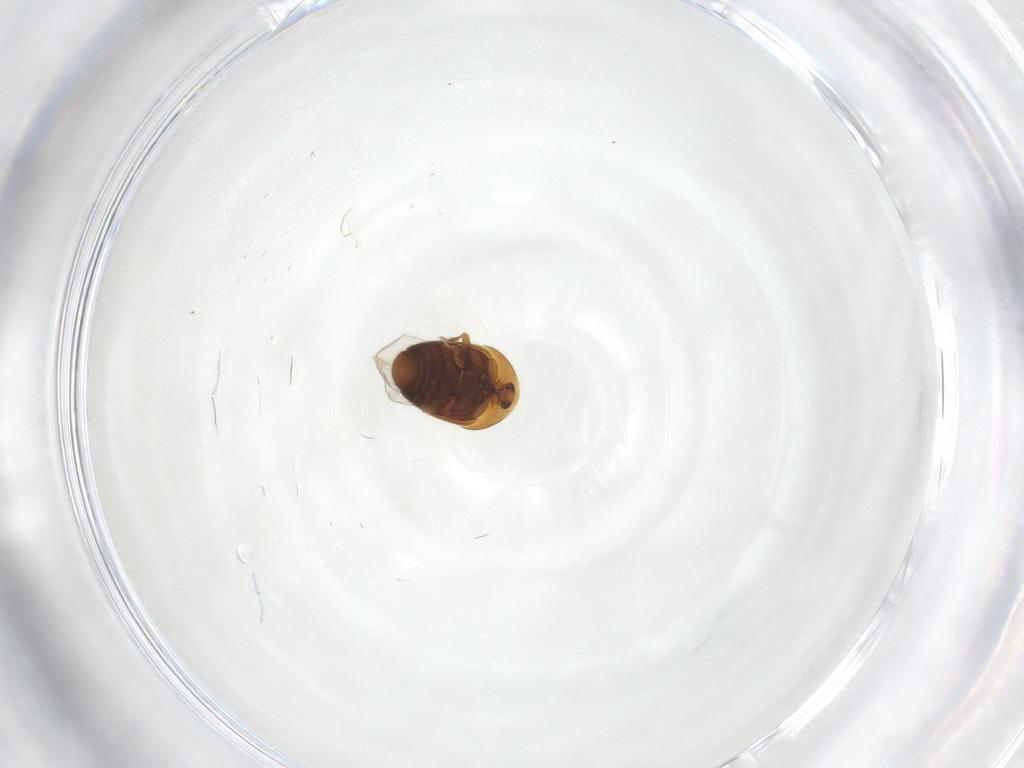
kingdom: Animalia
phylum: Arthropoda
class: Insecta
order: Coleoptera
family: Corylophidae
